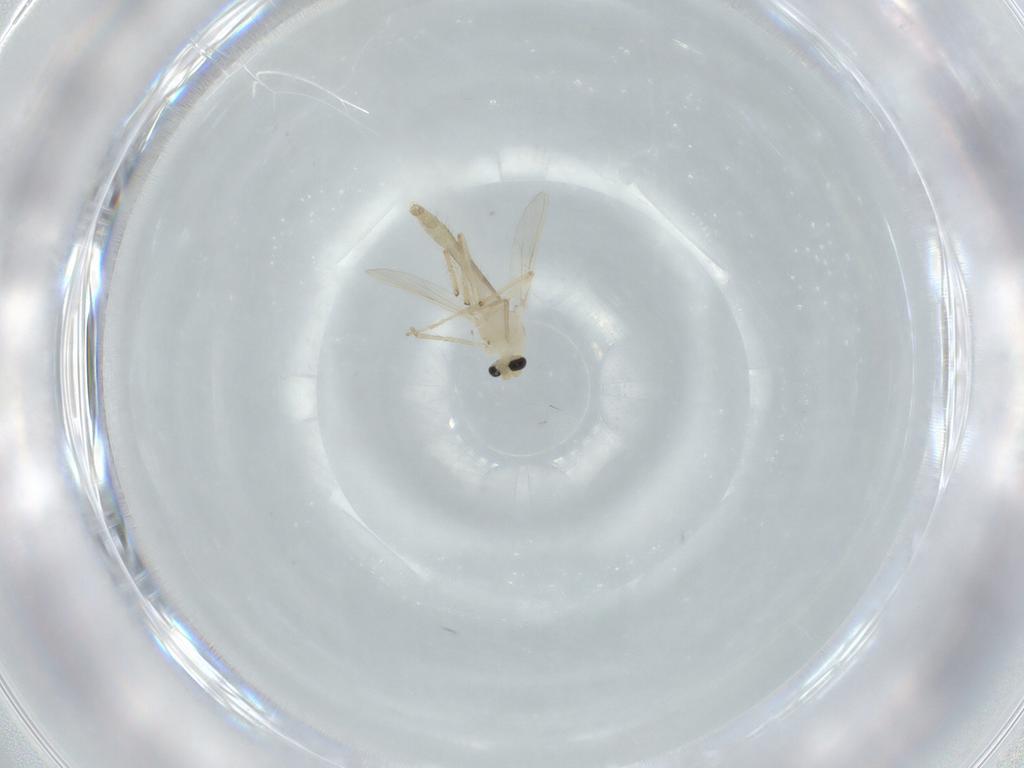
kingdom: Animalia
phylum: Arthropoda
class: Insecta
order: Diptera
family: Chironomidae
